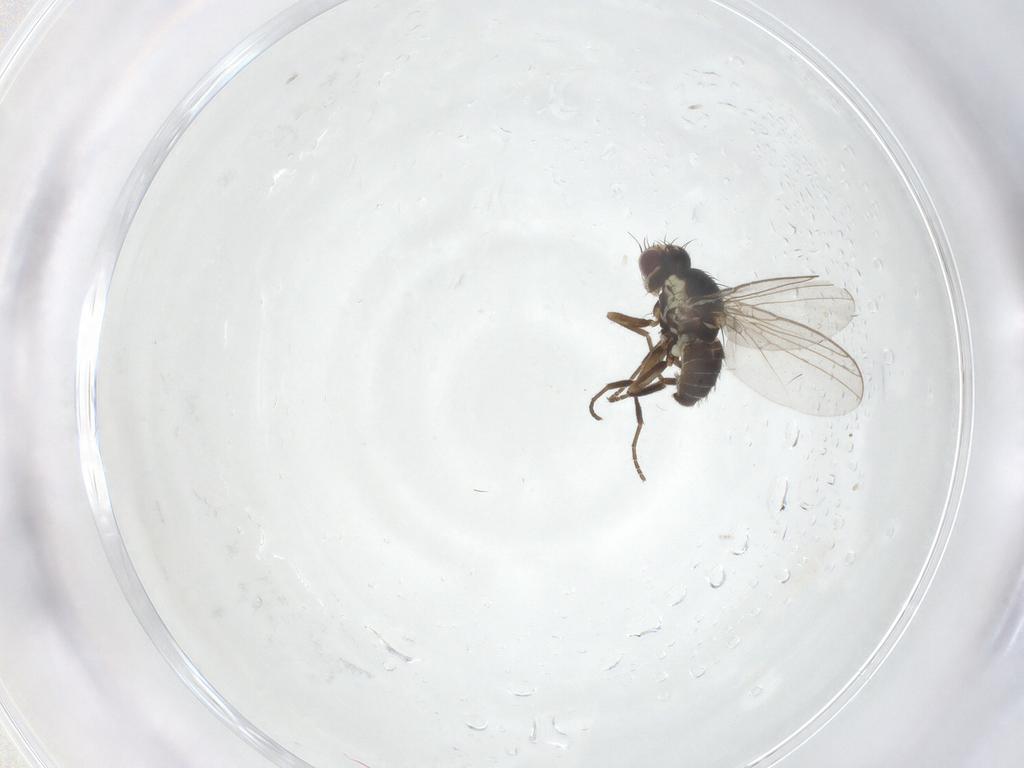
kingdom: Animalia
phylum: Arthropoda
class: Insecta
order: Diptera
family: Agromyzidae
